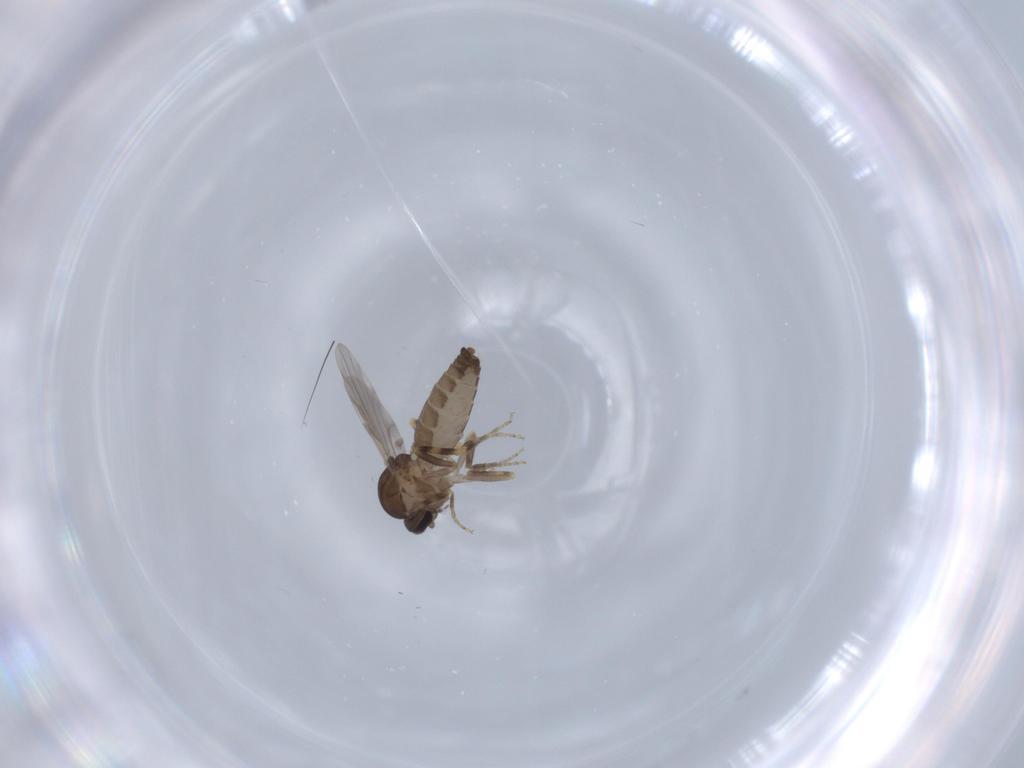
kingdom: Animalia
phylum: Arthropoda
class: Insecta
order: Diptera
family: Ceratopogonidae
